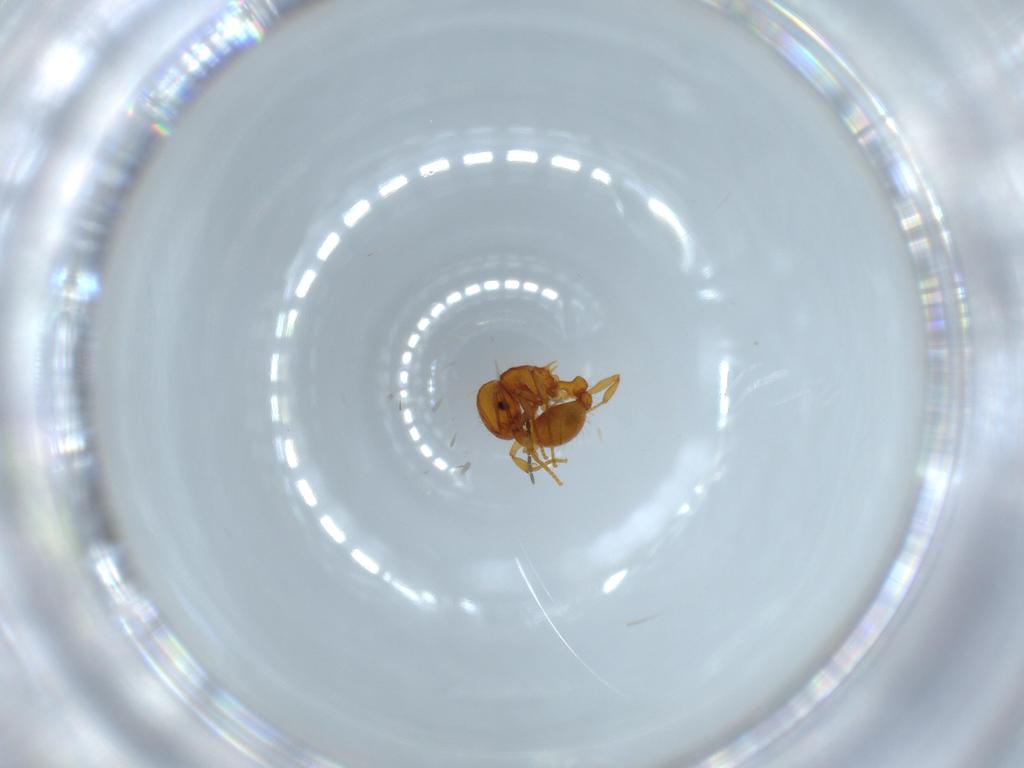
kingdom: Animalia
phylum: Arthropoda
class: Insecta
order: Hymenoptera
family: Formicidae
